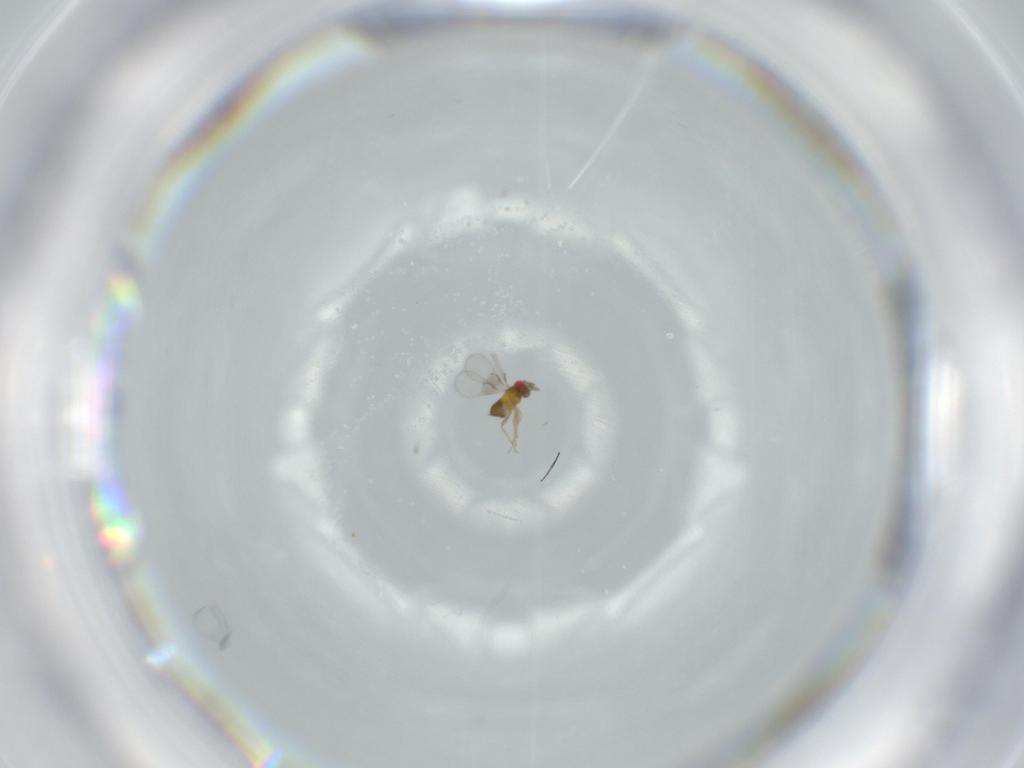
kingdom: Animalia
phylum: Arthropoda
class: Insecta
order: Hymenoptera
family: Trichogrammatidae
